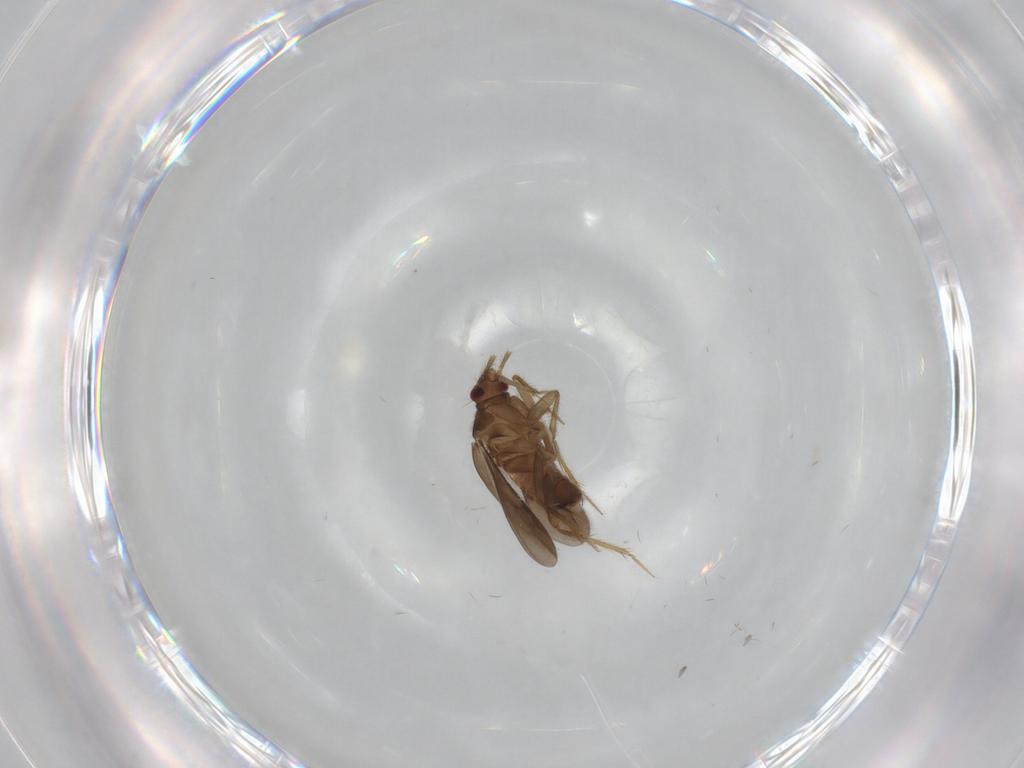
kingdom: Animalia
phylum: Arthropoda
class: Insecta
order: Hemiptera
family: Ceratocombidae
